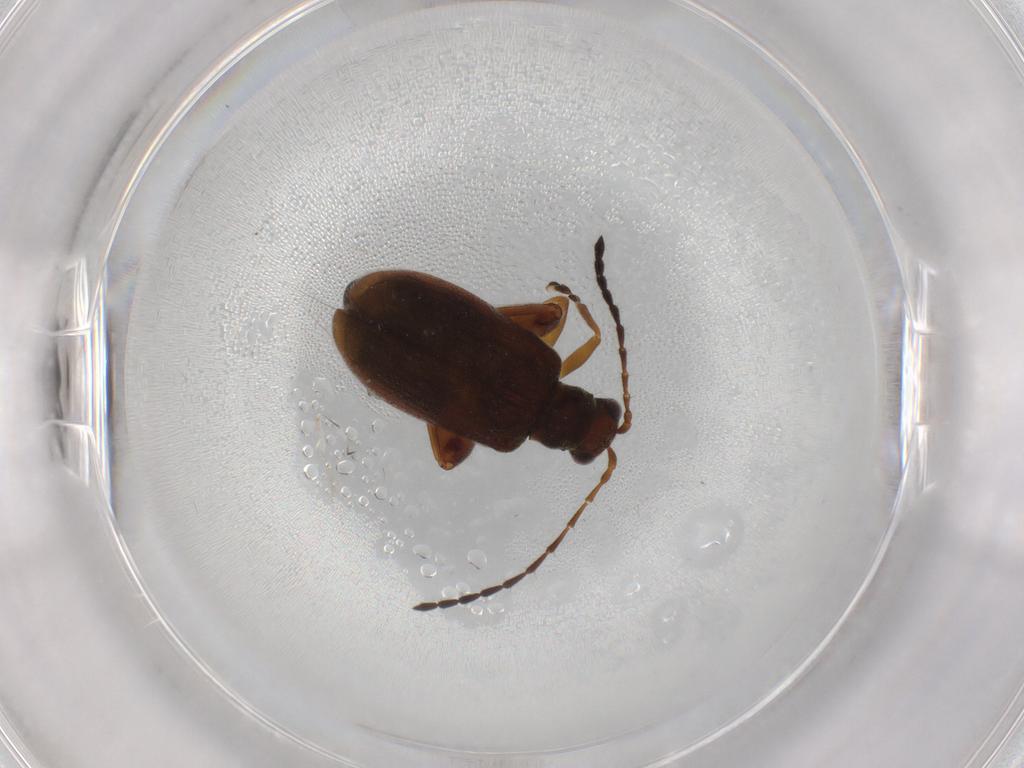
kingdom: Animalia
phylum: Arthropoda
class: Insecta
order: Coleoptera
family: Chrysomelidae
